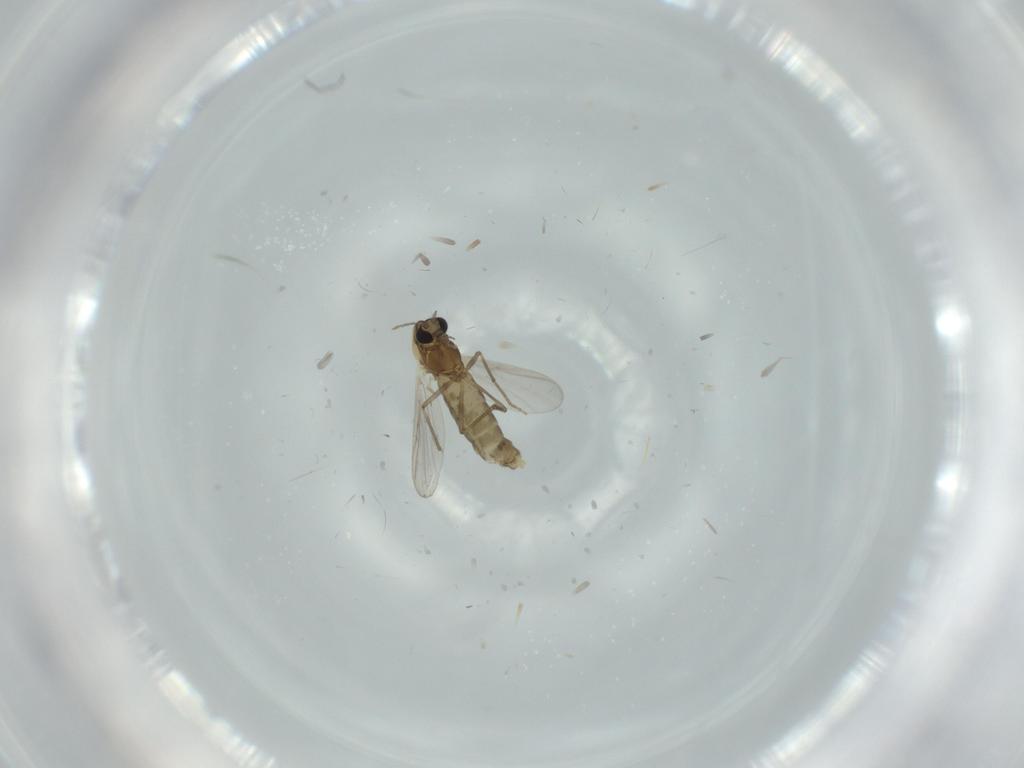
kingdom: Animalia
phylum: Arthropoda
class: Insecta
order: Diptera
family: Chironomidae
